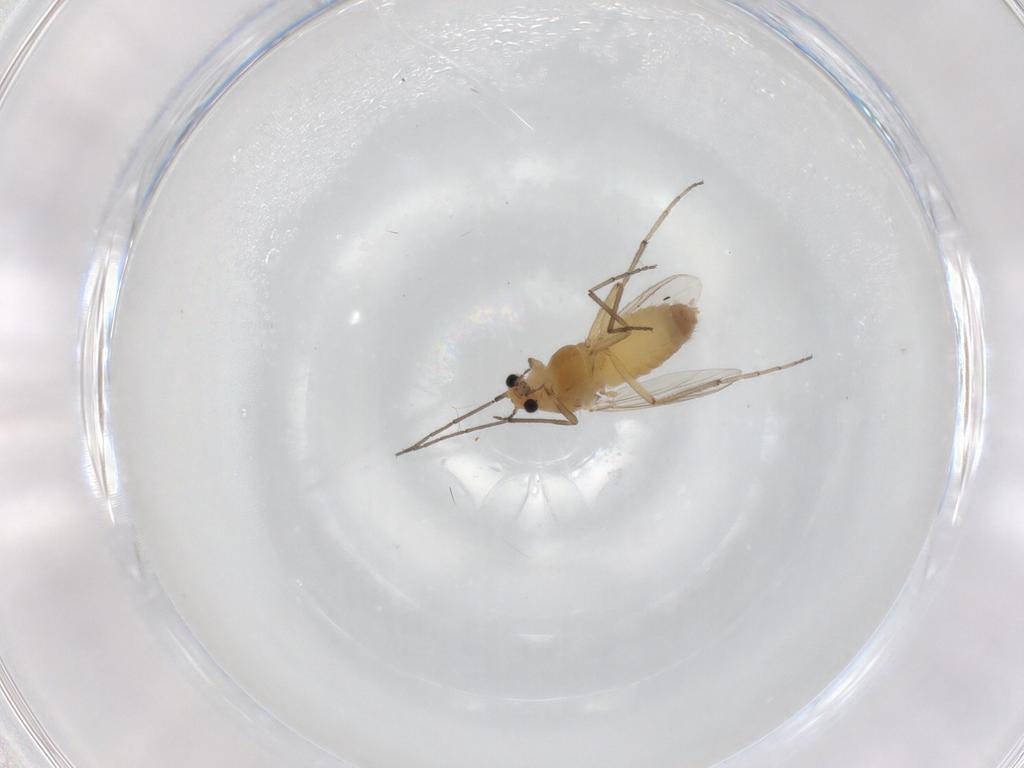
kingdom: Animalia
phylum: Arthropoda
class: Insecta
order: Diptera
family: Chironomidae
